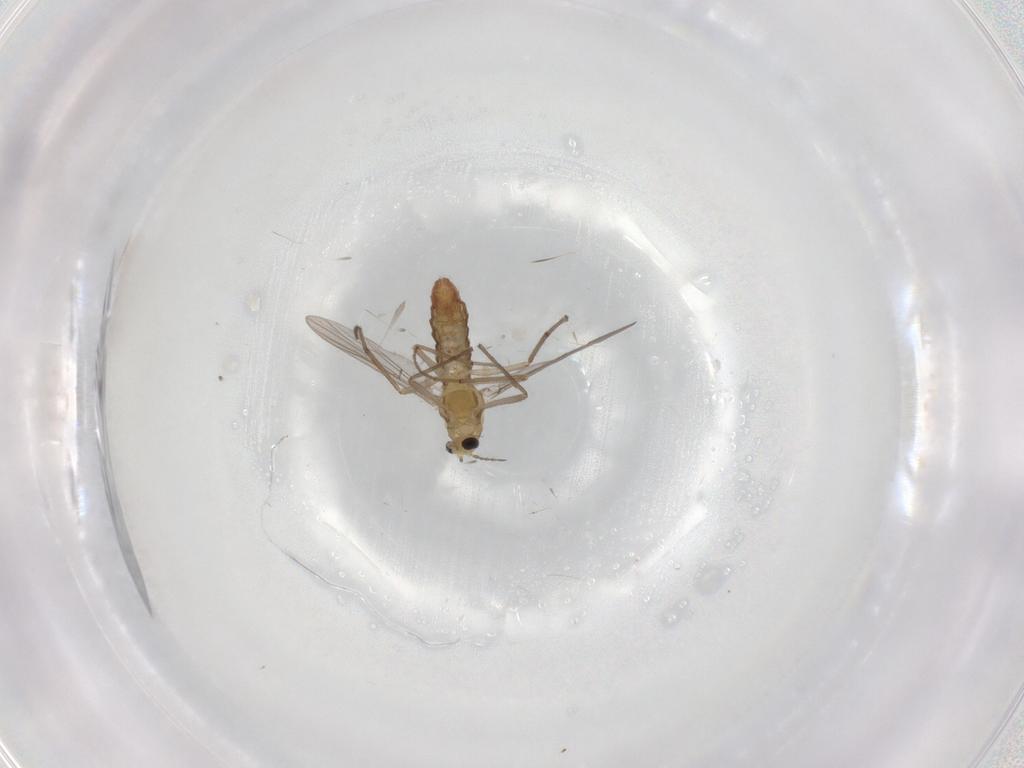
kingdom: Animalia
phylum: Arthropoda
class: Insecta
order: Diptera
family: Chironomidae
